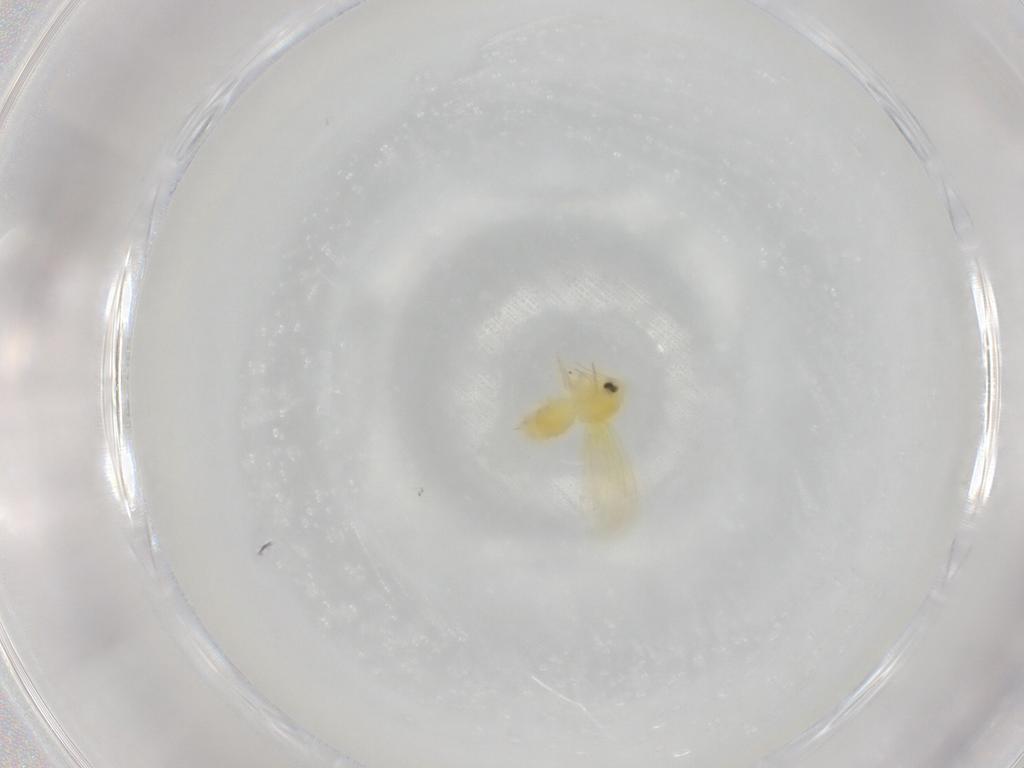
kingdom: Animalia
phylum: Arthropoda
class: Insecta
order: Hemiptera
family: Aleyrodidae
